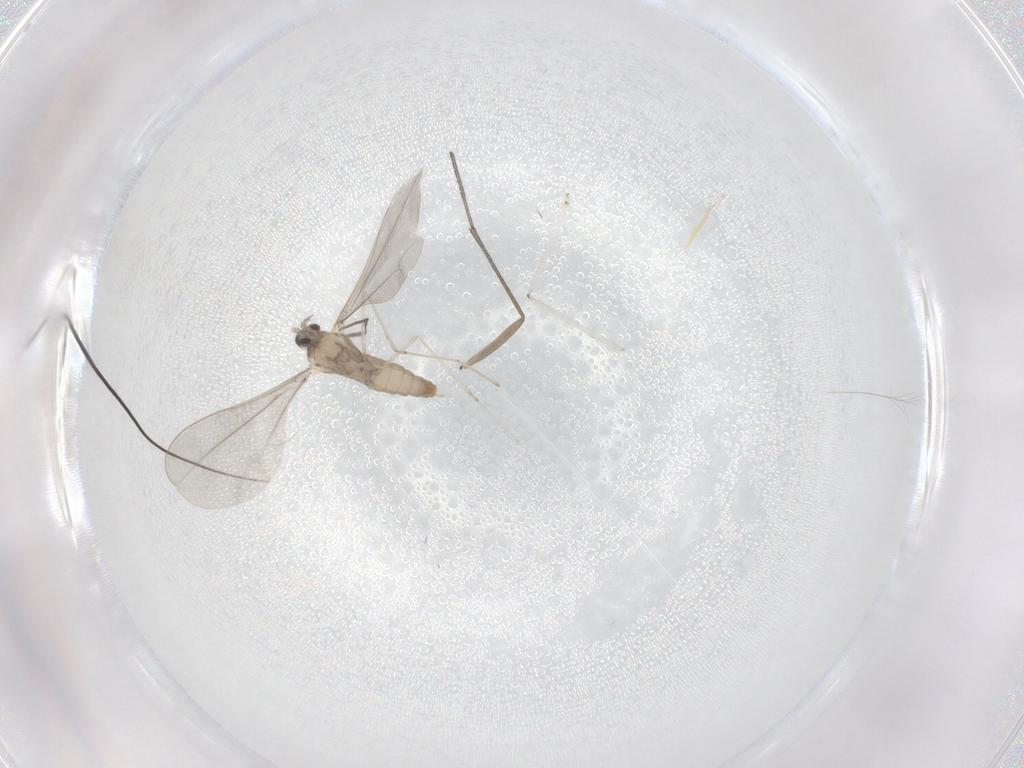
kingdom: Animalia
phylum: Arthropoda
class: Insecta
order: Diptera
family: Cecidomyiidae
